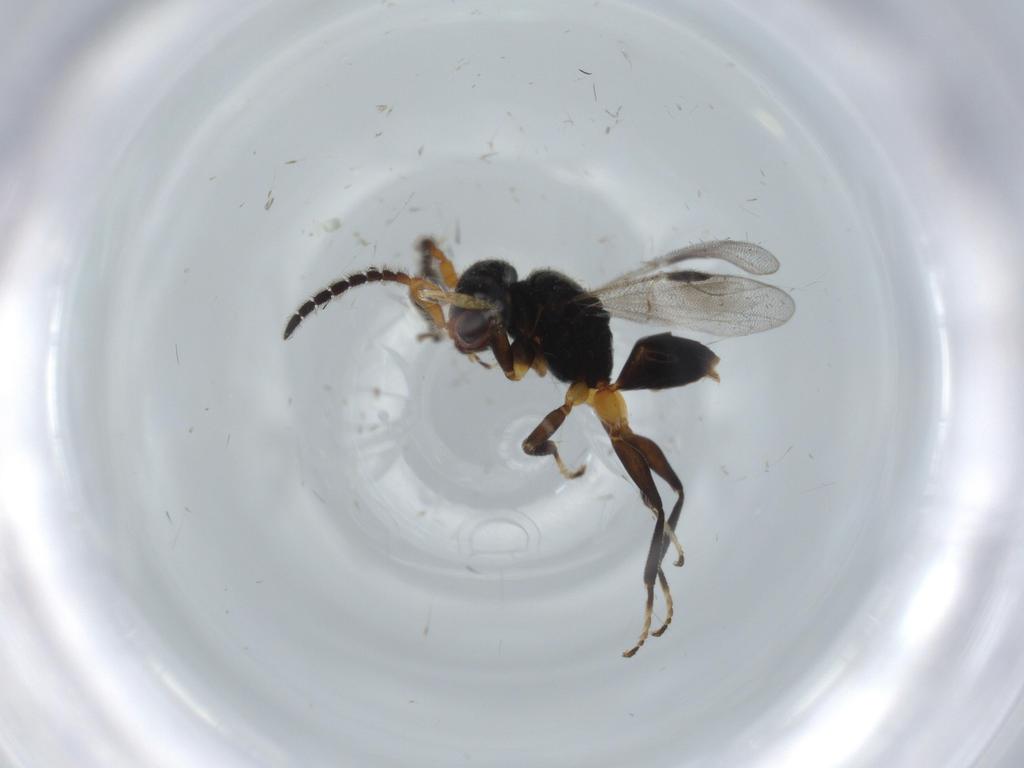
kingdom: Animalia
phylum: Arthropoda
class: Insecta
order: Hymenoptera
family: Dryinidae
